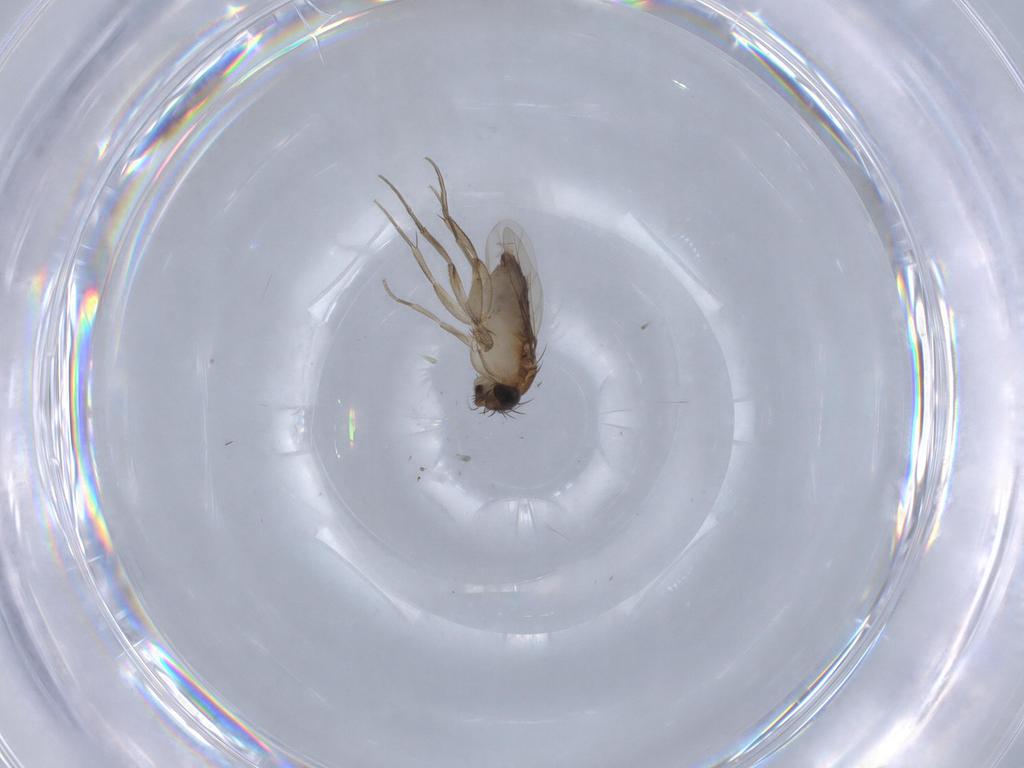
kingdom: Animalia
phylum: Arthropoda
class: Insecta
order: Diptera
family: Phoridae
